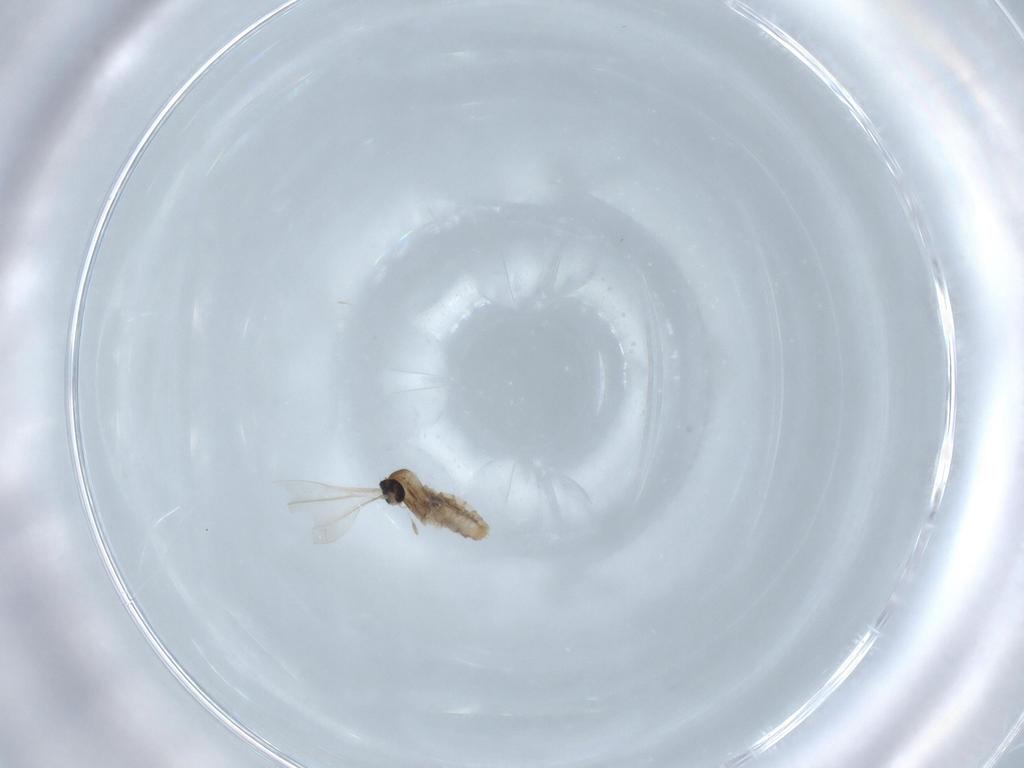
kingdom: Animalia
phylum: Arthropoda
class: Insecta
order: Diptera
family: Cecidomyiidae
